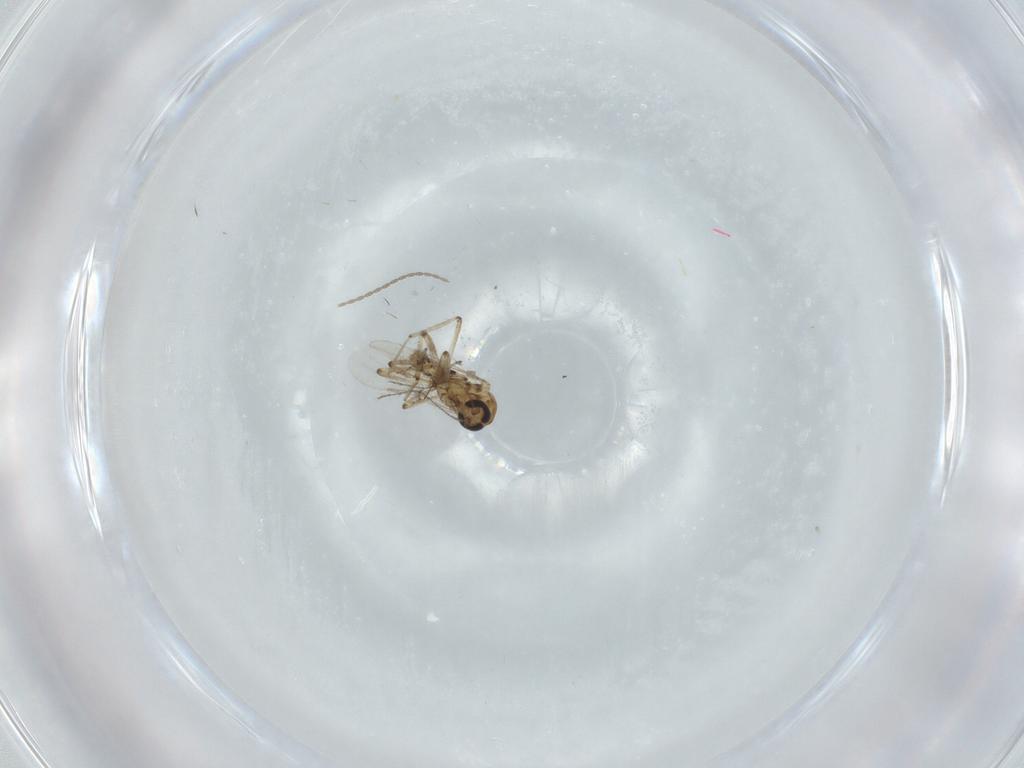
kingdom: Animalia
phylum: Arthropoda
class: Insecta
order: Diptera
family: Ceratopogonidae
